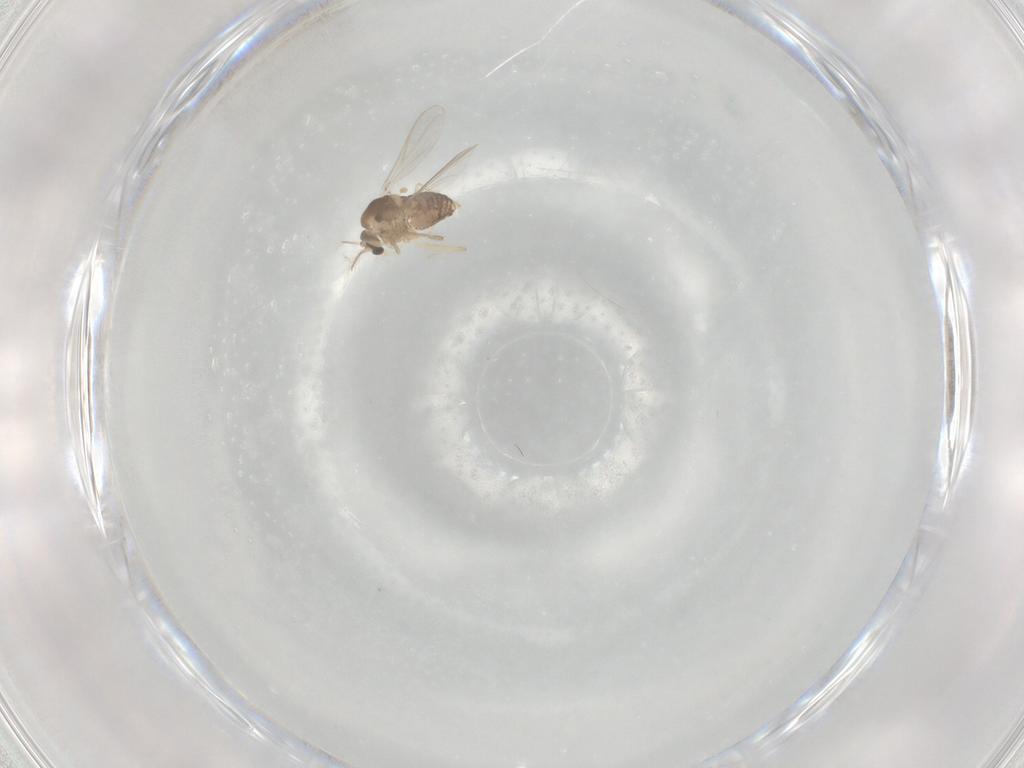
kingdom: Animalia
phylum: Arthropoda
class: Insecta
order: Diptera
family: Chironomidae
